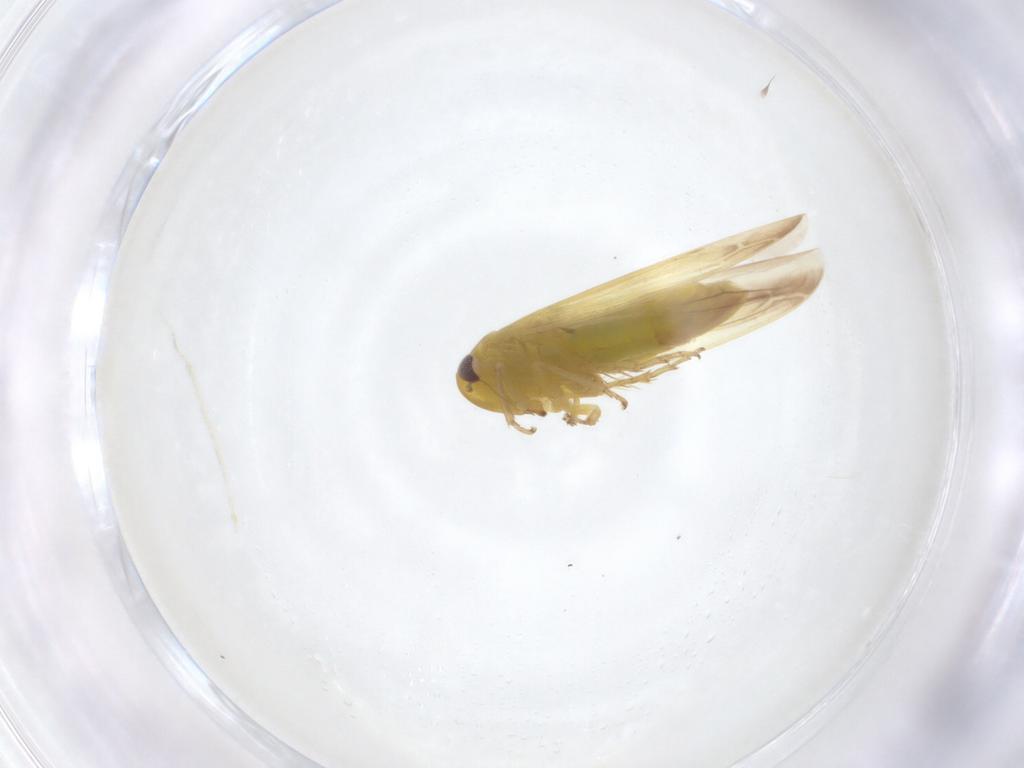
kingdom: Animalia
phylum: Arthropoda
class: Insecta
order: Hemiptera
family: Cicadellidae
